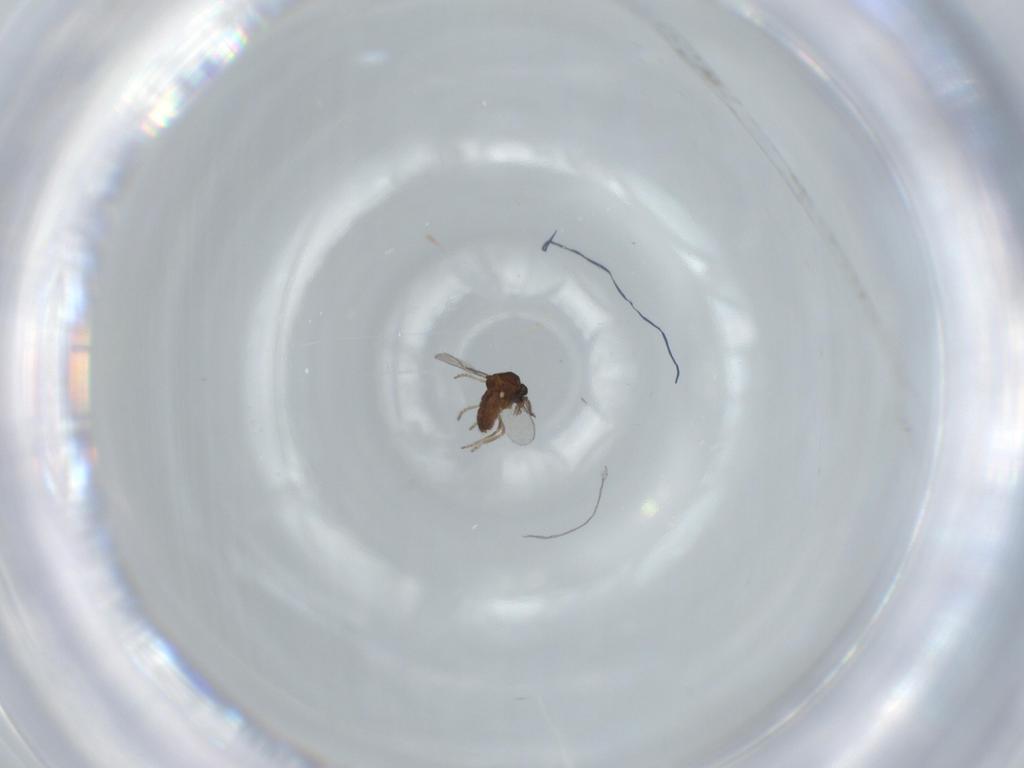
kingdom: Animalia
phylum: Arthropoda
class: Insecta
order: Diptera
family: Ceratopogonidae
